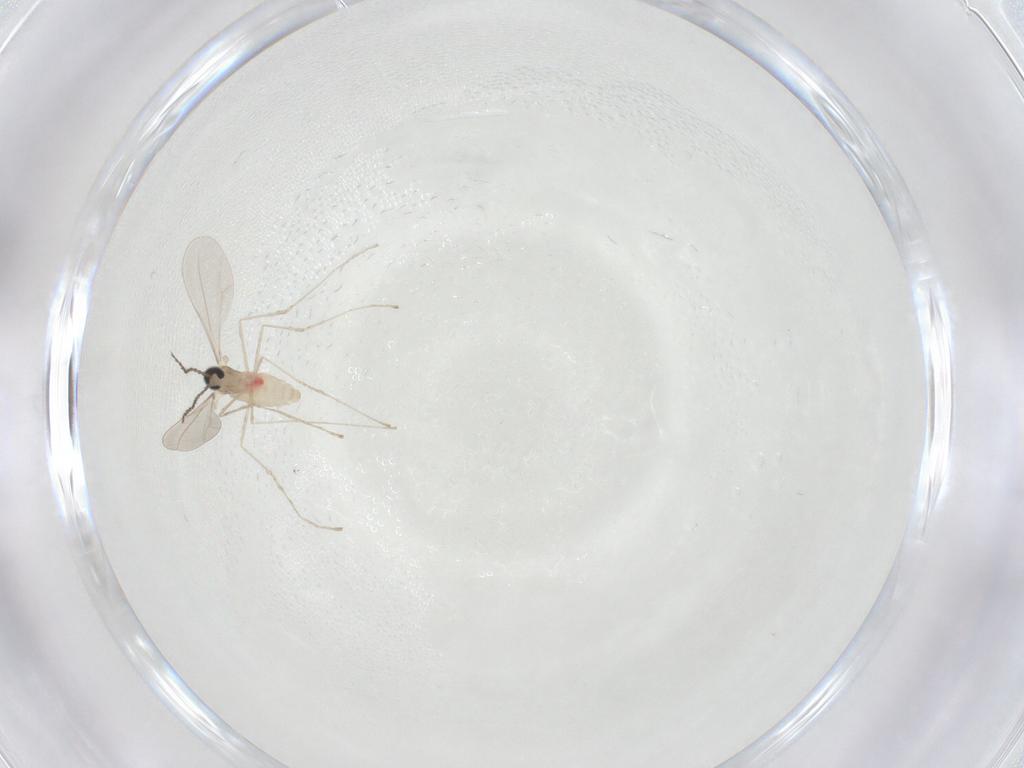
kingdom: Animalia
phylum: Arthropoda
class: Insecta
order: Diptera
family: Cecidomyiidae
